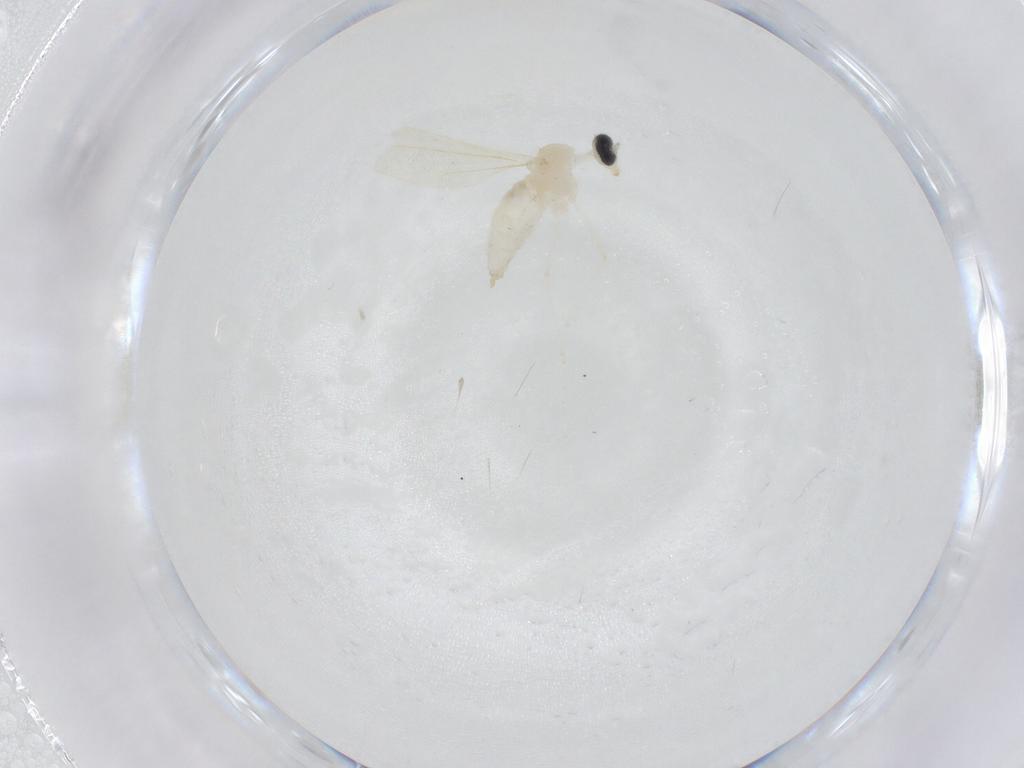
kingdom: Animalia
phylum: Arthropoda
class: Insecta
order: Diptera
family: Cecidomyiidae
